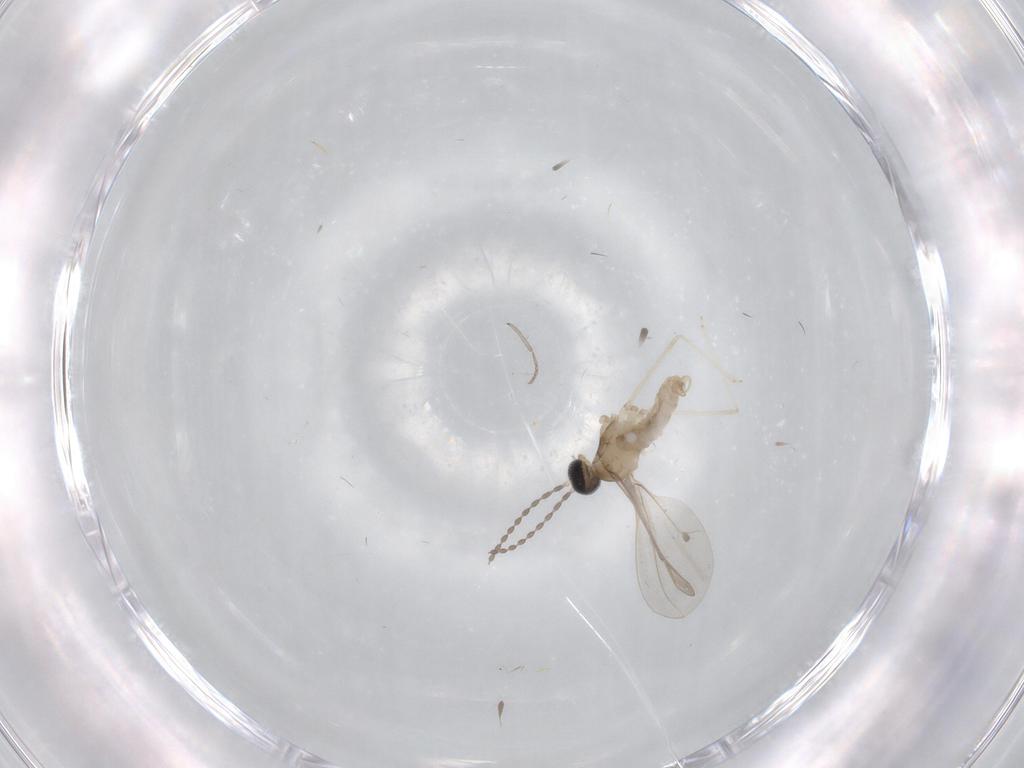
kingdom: Animalia
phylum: Arthropoda
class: Insecta
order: Diptera
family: Cecidomyiidae
